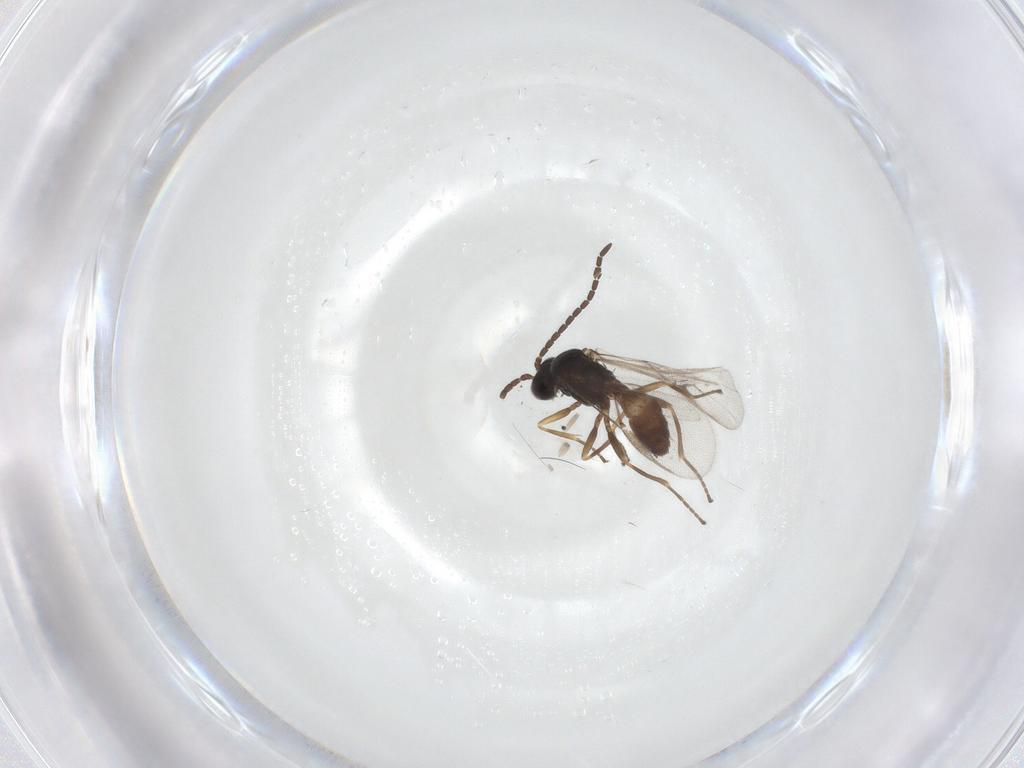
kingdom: Animalia
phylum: Arthropoda
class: Insecta
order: Hymenoptera
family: Braconidae
